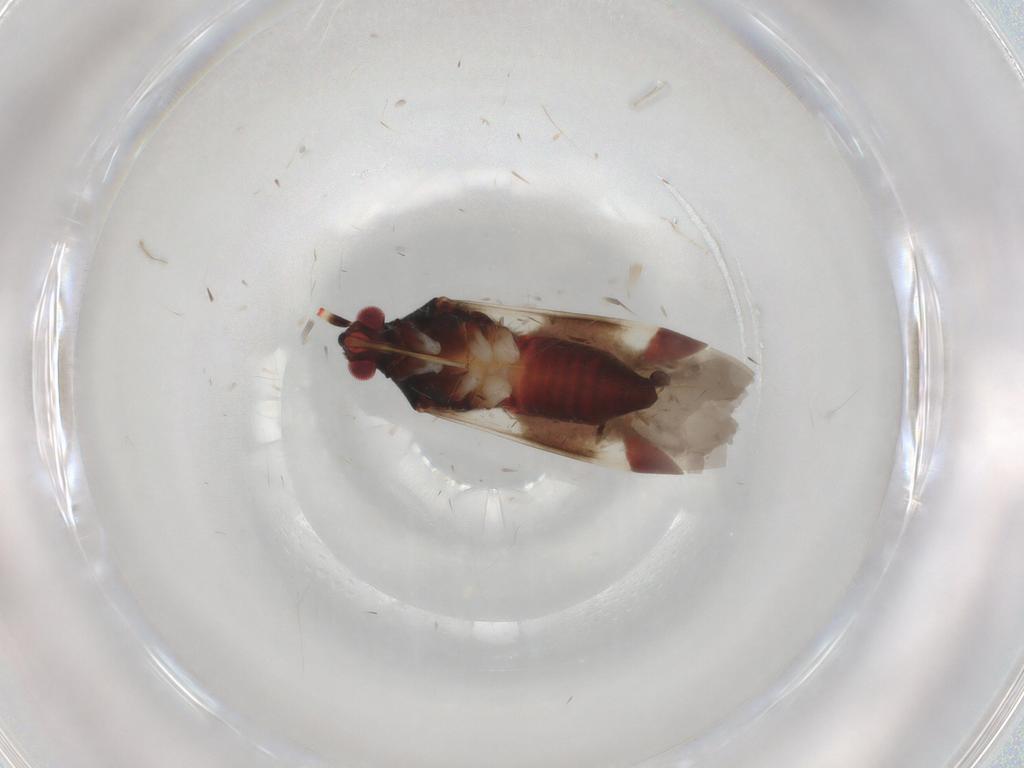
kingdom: Animalia
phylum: Arthropoda
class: Insecta
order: Hemiptera
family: Miridae
